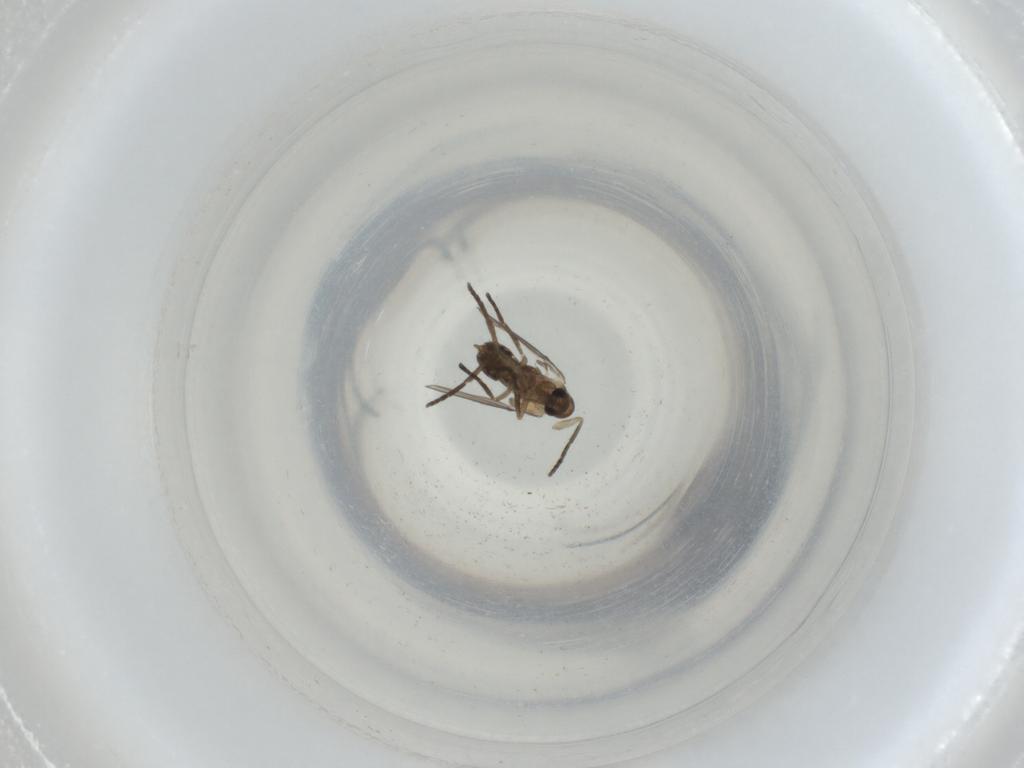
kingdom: Animalia
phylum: Arthropoda
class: Insecta
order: Diptera
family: Psychodidae
